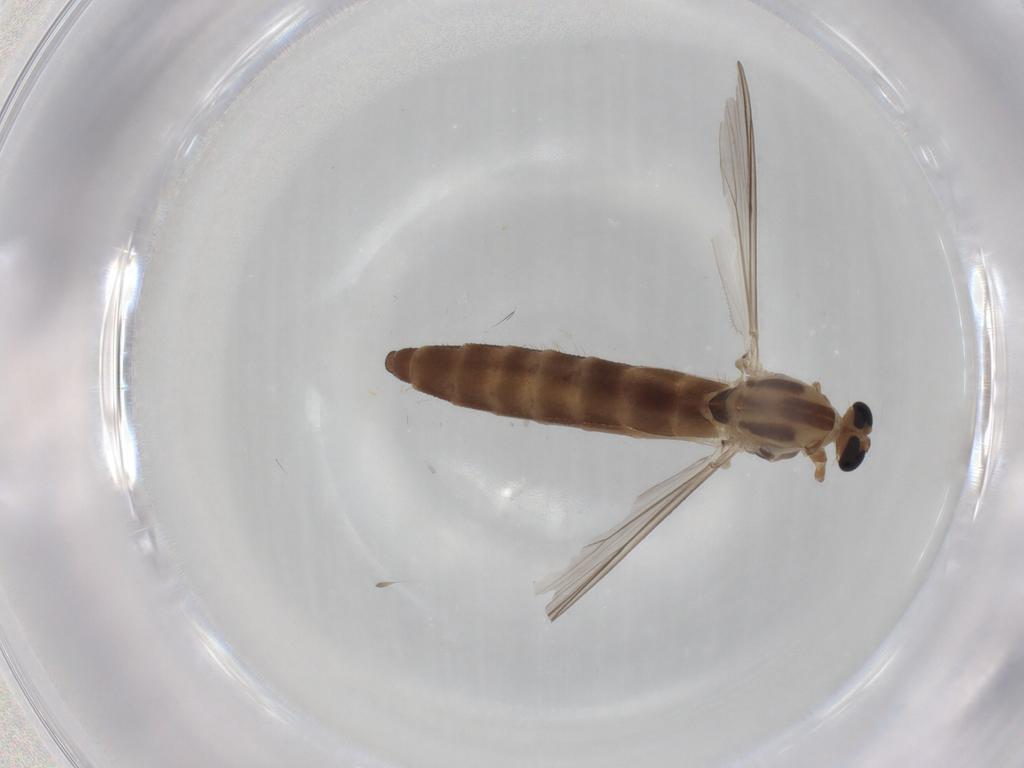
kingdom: Animalia
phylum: Arthropoda
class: Insecta
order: Diptera
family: Chironomidae
